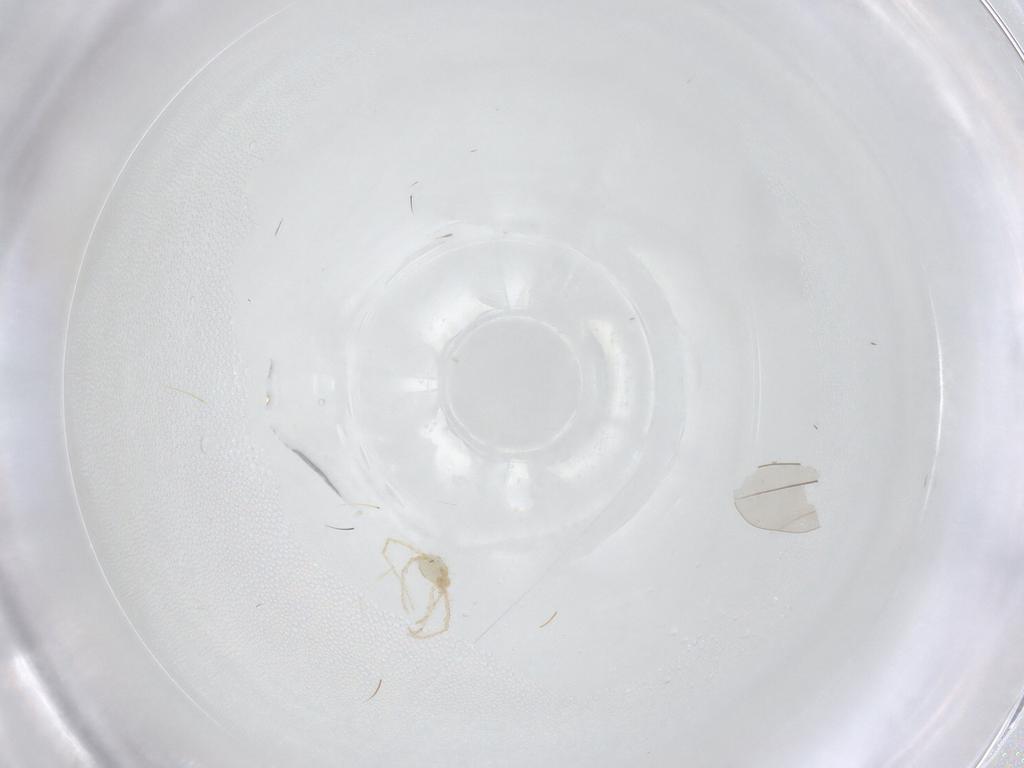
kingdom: Animalia
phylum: Arthropoda
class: Arachnida
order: Trombidiformes
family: Erythraeidae
